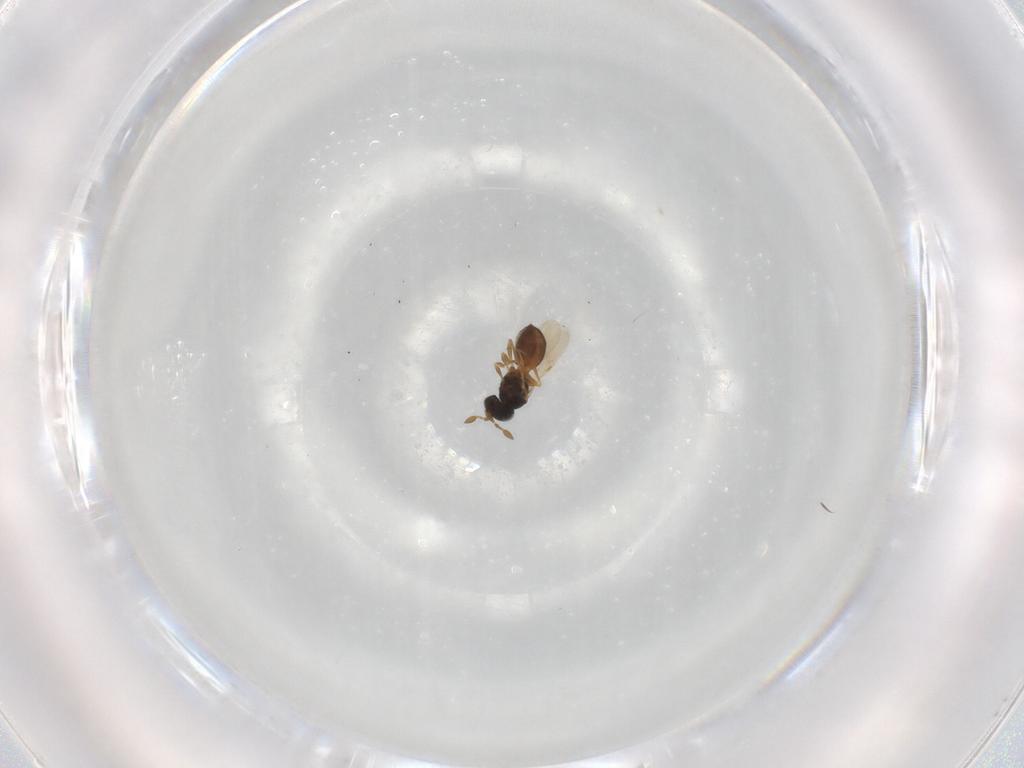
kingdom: Animalia
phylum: Arthropoda
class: Insecta
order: Hymenoptera
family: Scelionidae
